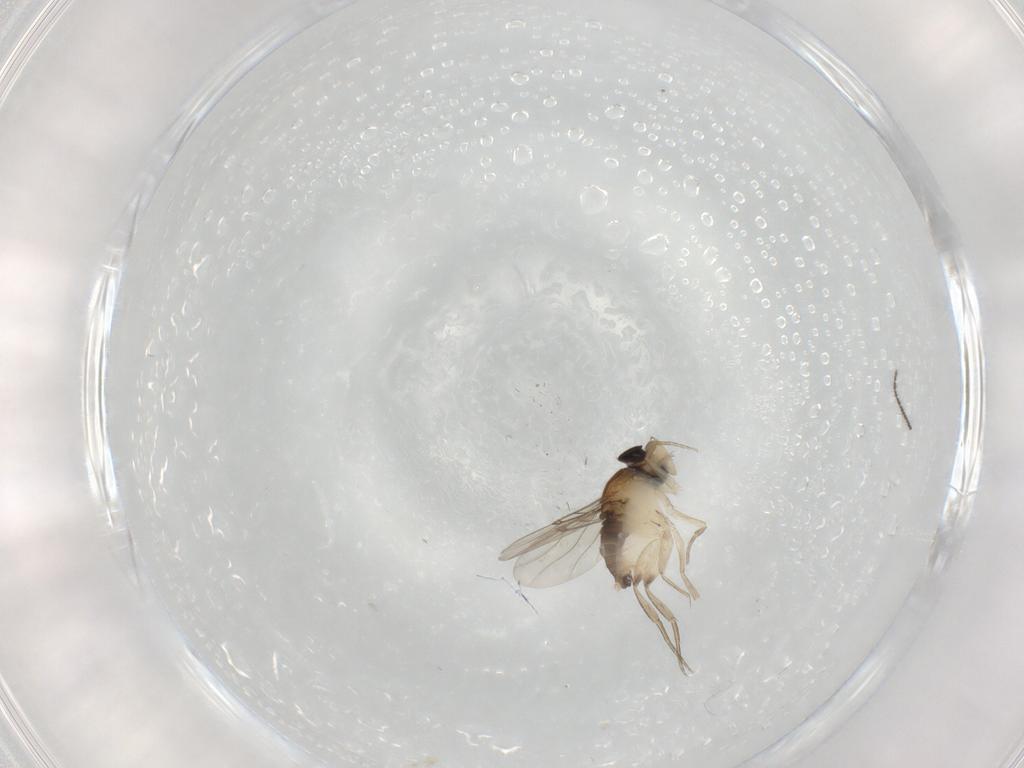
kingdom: Animalia
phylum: Arthropoda
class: Insecta
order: Diptera
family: Phoridae
